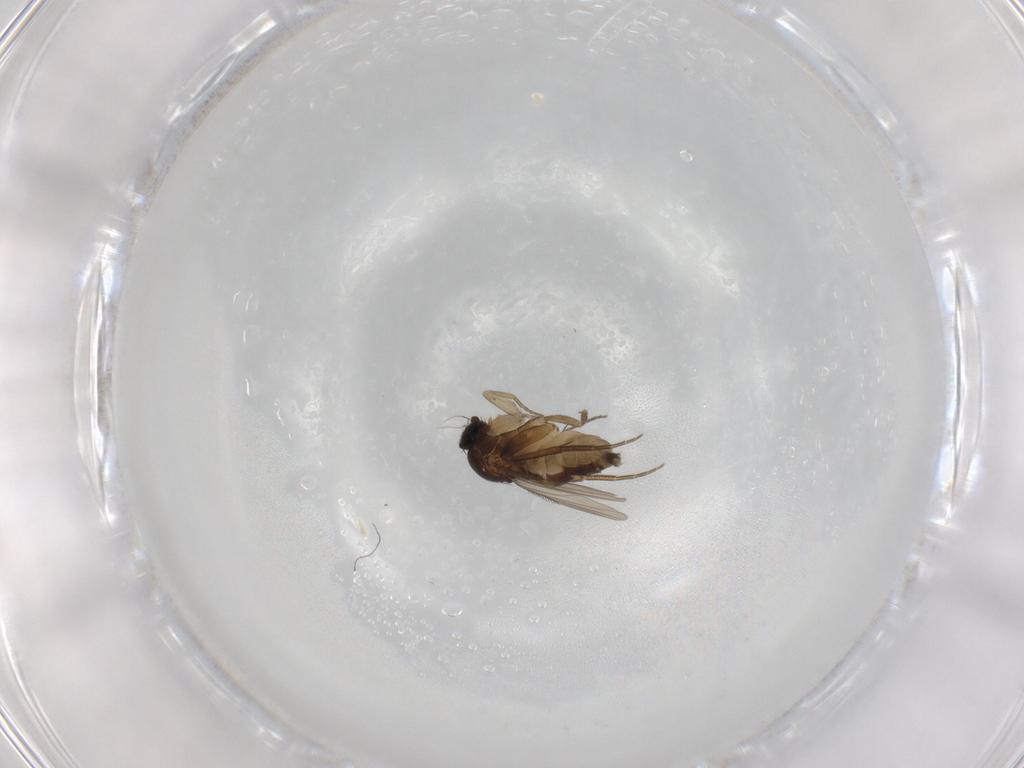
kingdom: Animalia
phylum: Arthropoda
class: Insecta
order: Diptera
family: Phoridae
